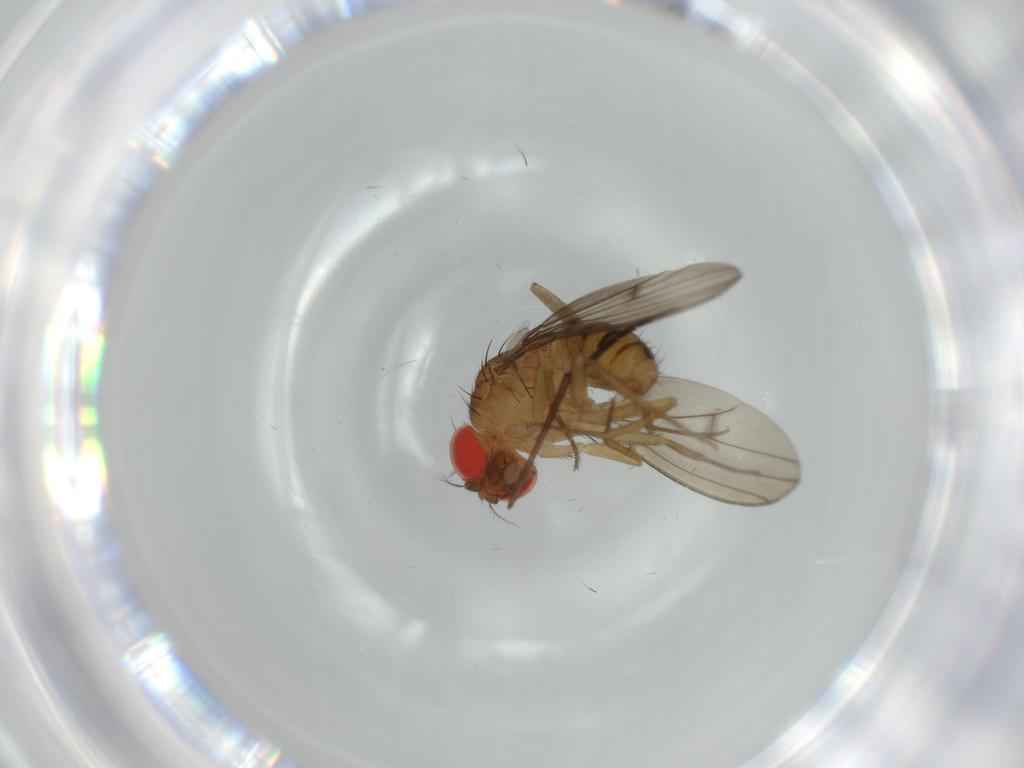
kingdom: Animalia
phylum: Arthropoda
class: Insecta
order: Diptera
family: Drosophilidae
